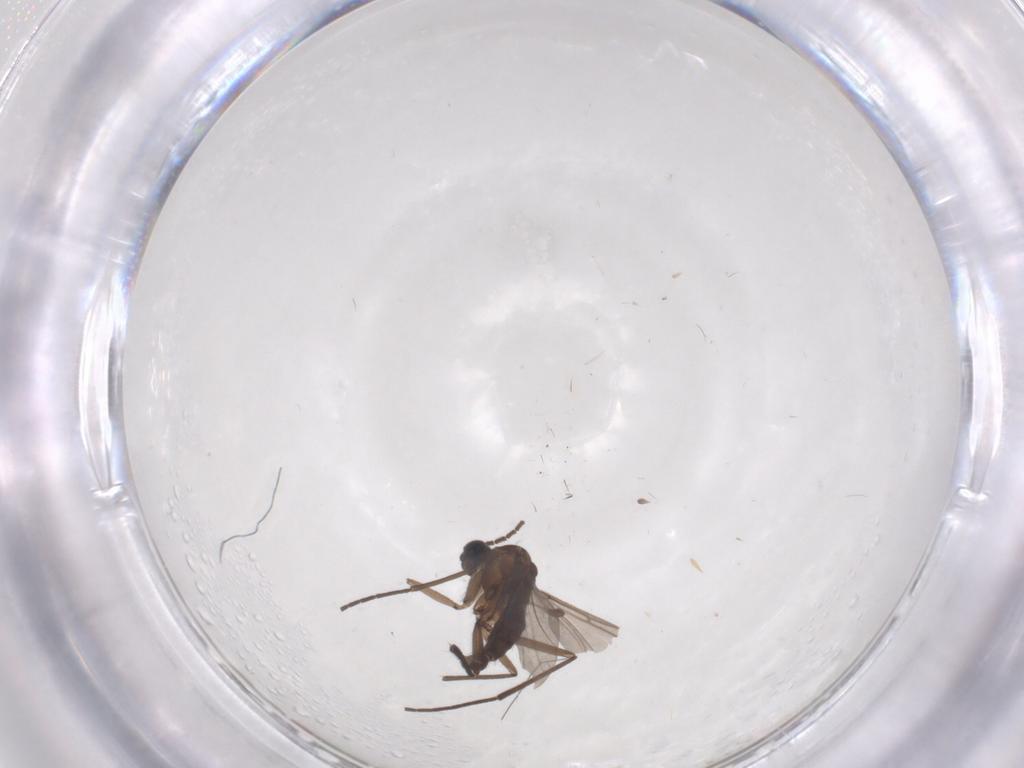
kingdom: Animalia
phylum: Arthropoda
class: Insecta
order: Diptera
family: Chironomidae
